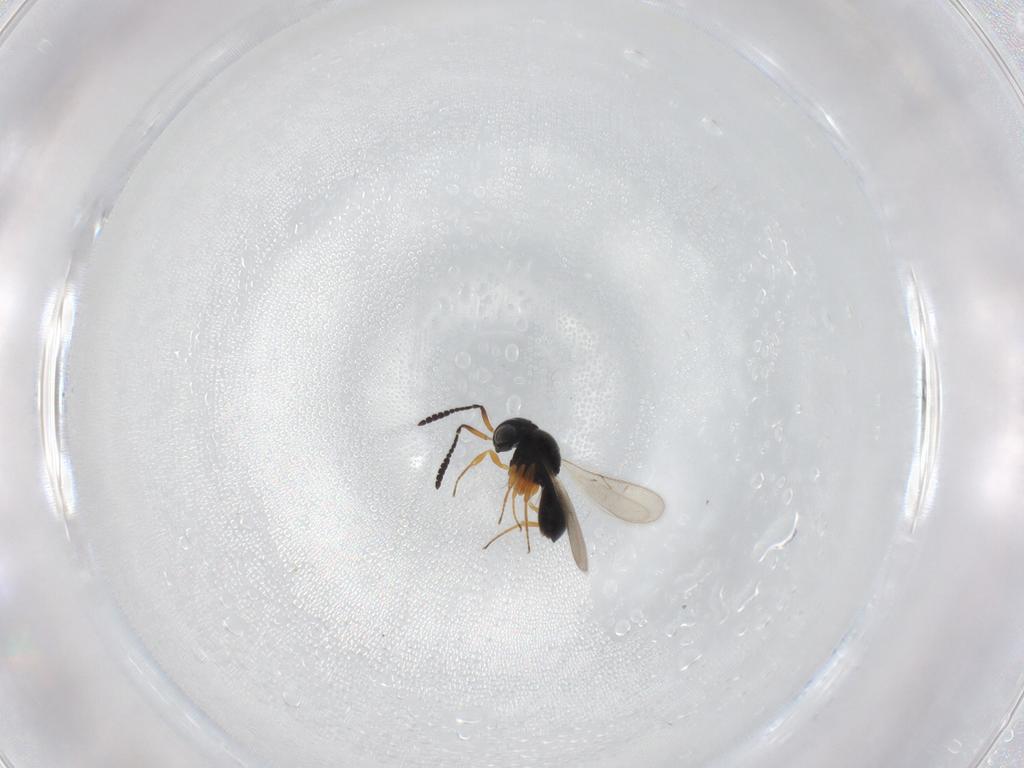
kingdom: Animalia
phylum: Arthropoda
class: Insecta
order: Hymenoptera
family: Scelionidae
